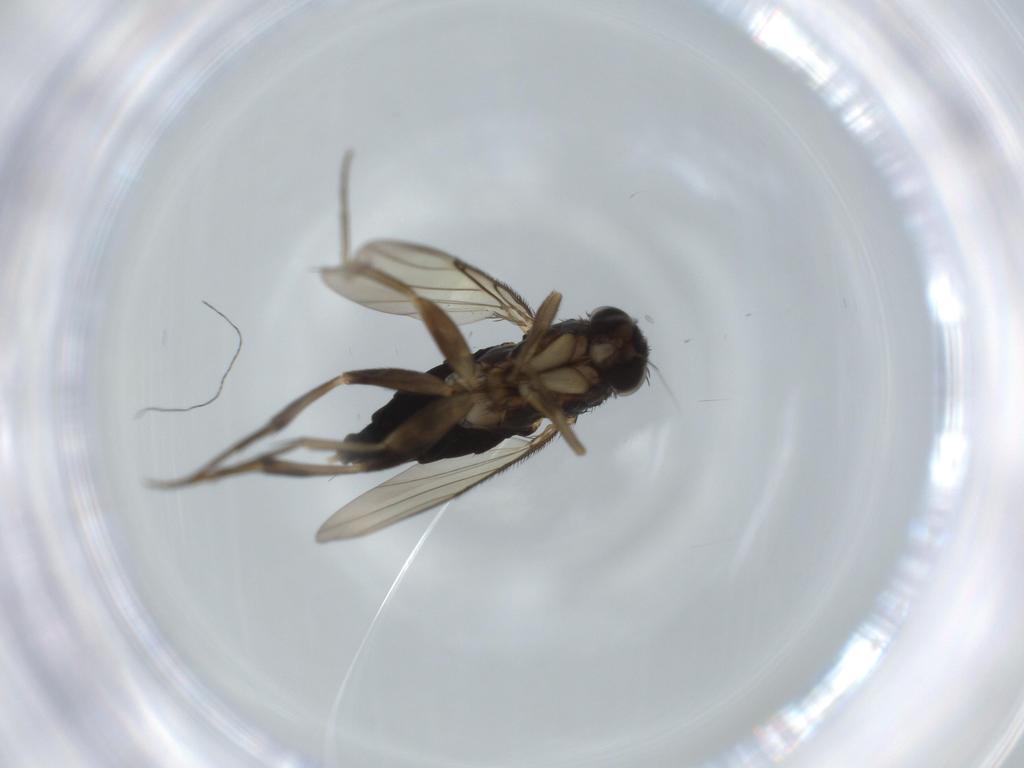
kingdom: Animalia
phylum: Arthropoda
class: Insecta
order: Diptera
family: Phoridae
